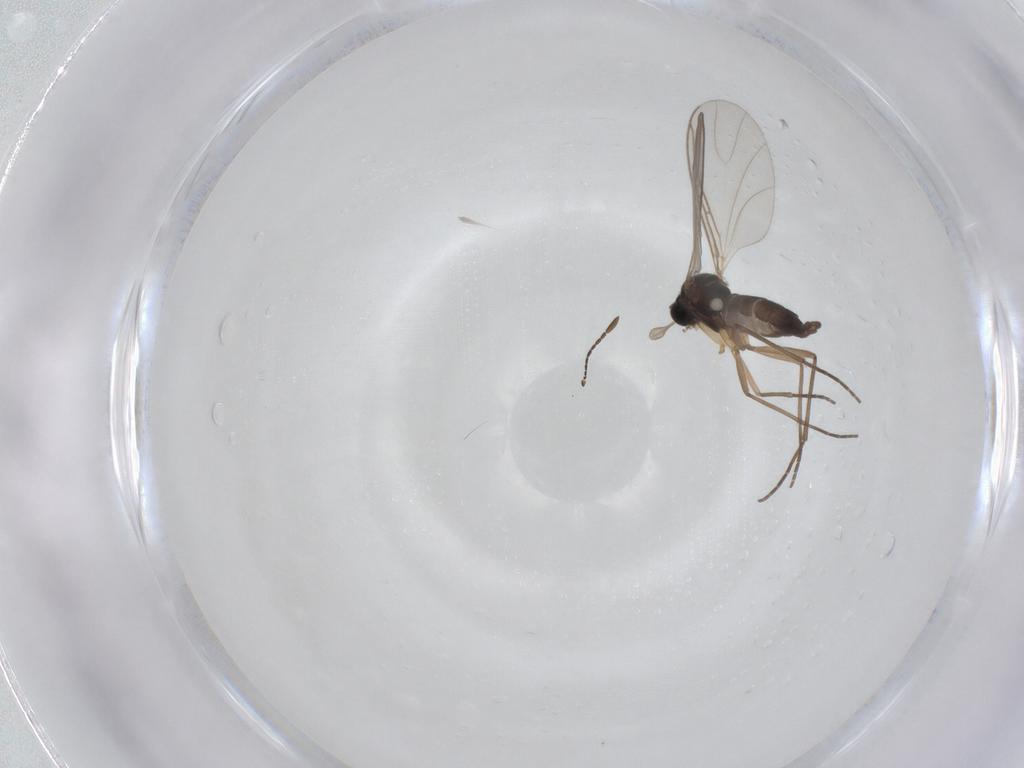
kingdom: Animalia
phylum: Arthropoda
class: Insecta
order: Diptera
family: Sciaridae
